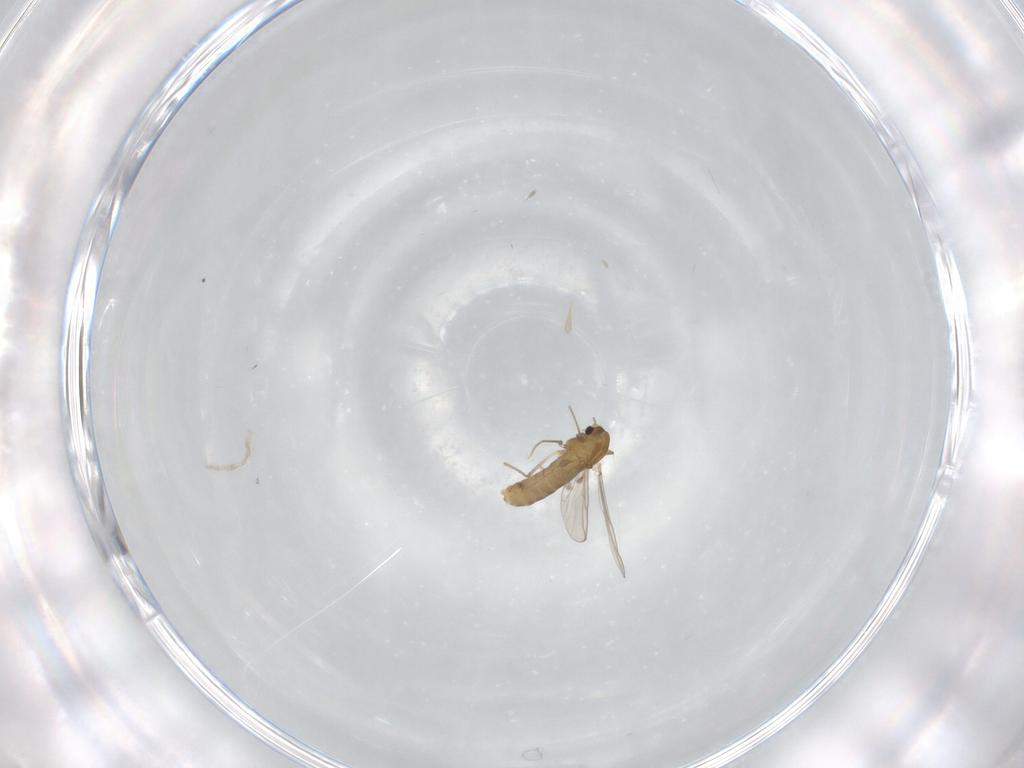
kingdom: Animalia
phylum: Arthropoda
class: Insecta
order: Diptera
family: Chironomidae
